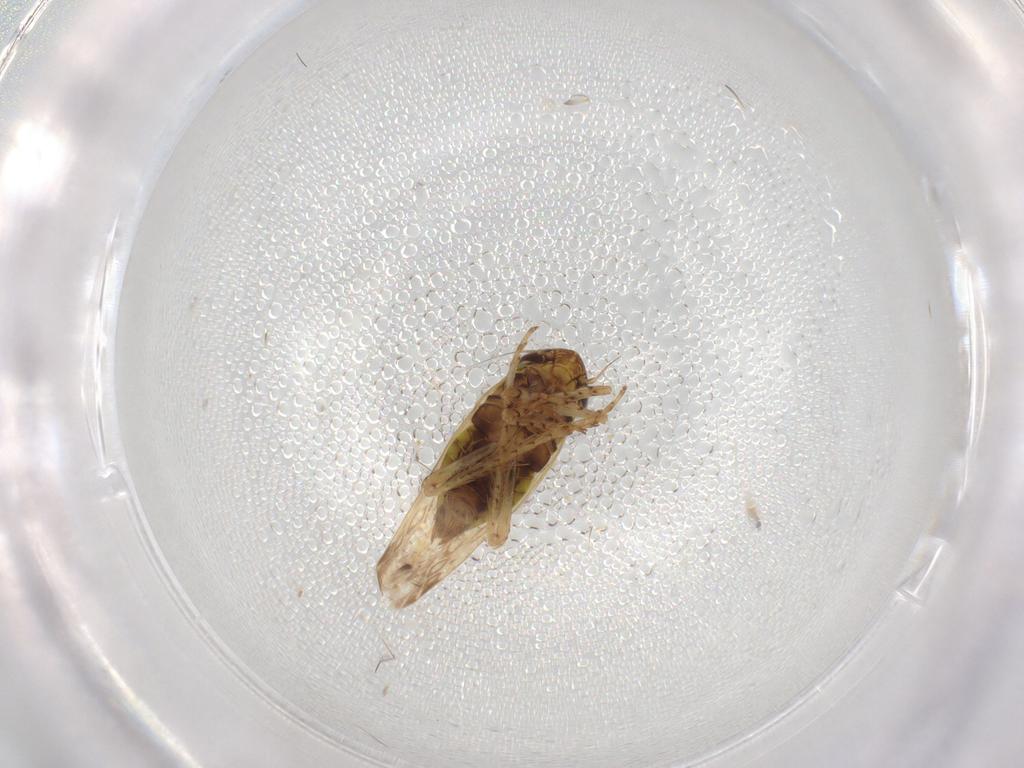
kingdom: Animalia
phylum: Arthropoda
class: Insecta
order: Hemiptera
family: Cicadellidae
